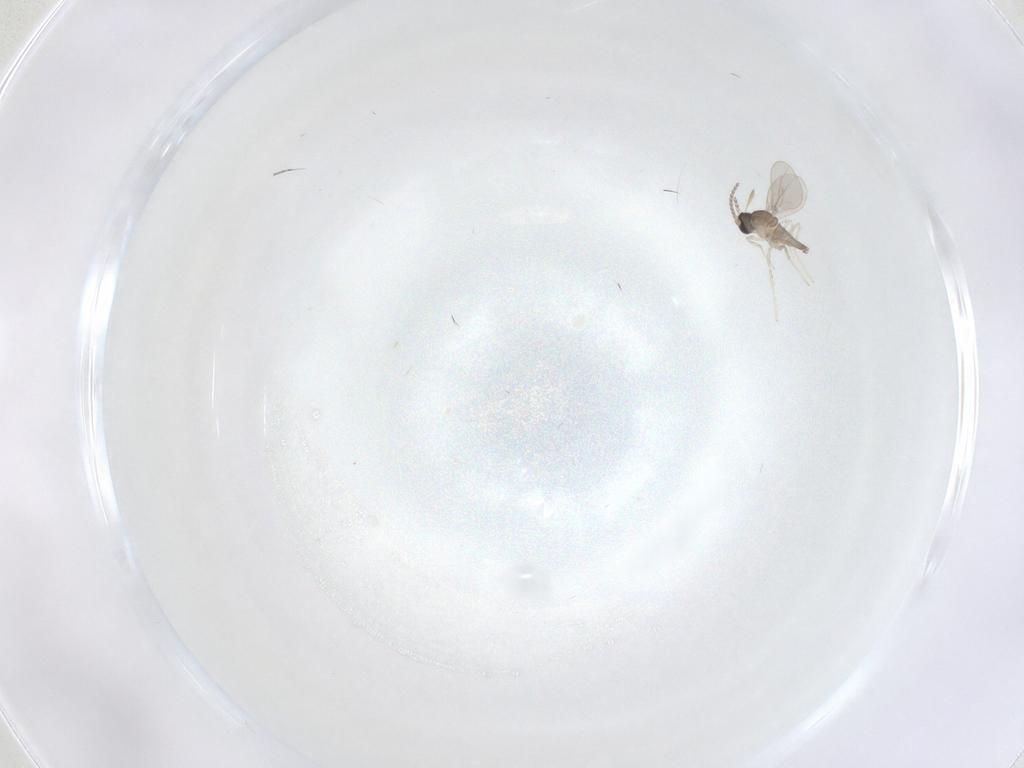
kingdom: Animalia
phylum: Arthropoda
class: Insecta
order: Diptera
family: Cecidomyiidae
